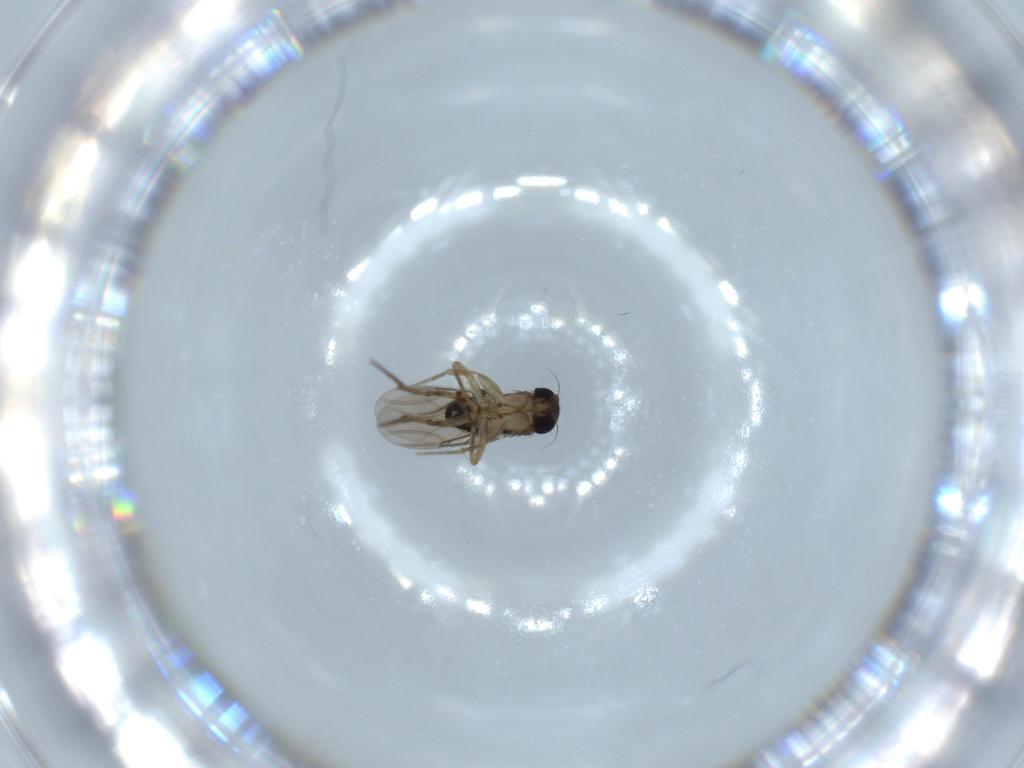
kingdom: Animalia
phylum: Arthropoda
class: Insecta
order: Diptera
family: Phoridae
